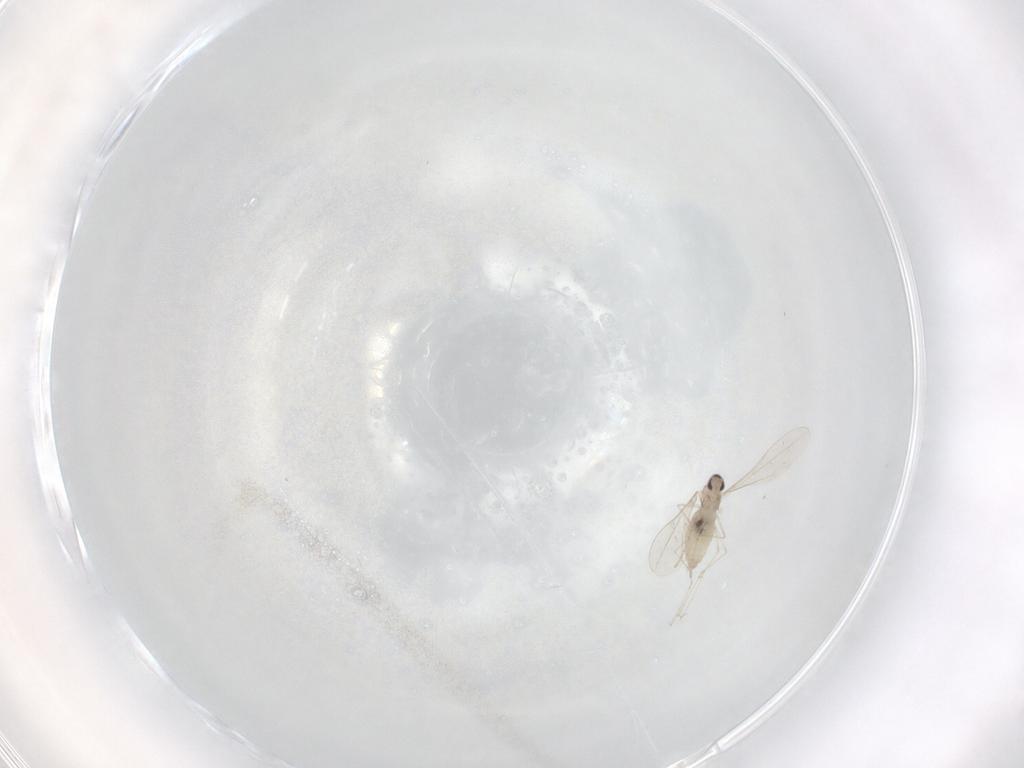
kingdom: Animalia
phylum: Arthropoda
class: Insecta
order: Diptera
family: Cecidomyiidae
